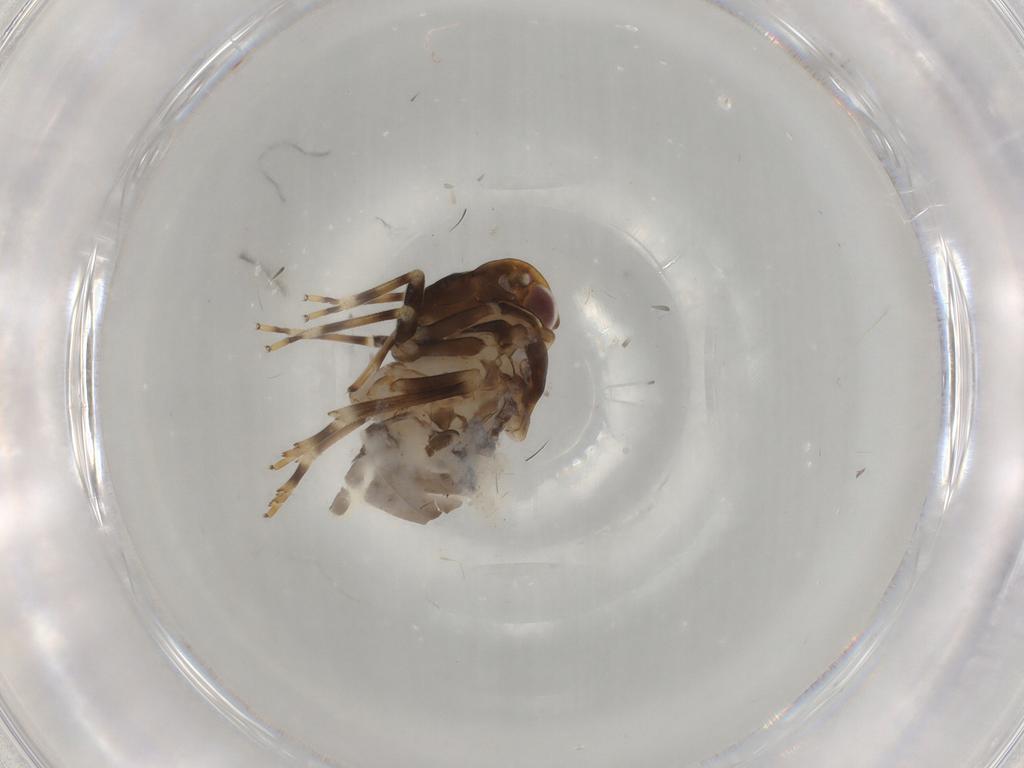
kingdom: Animalia
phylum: Arthropoda
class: Insecta
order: Hemiptera
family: Cixiidae
